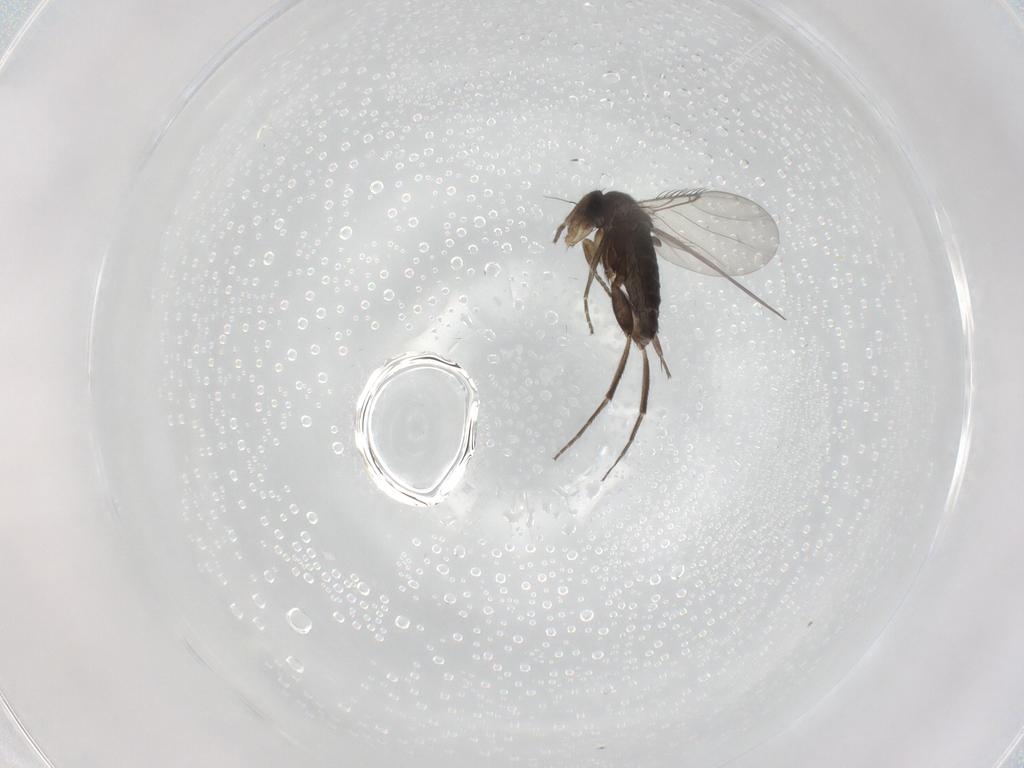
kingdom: Animalia
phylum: Arthropoda
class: Insecta
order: Diptera
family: Phoridae
